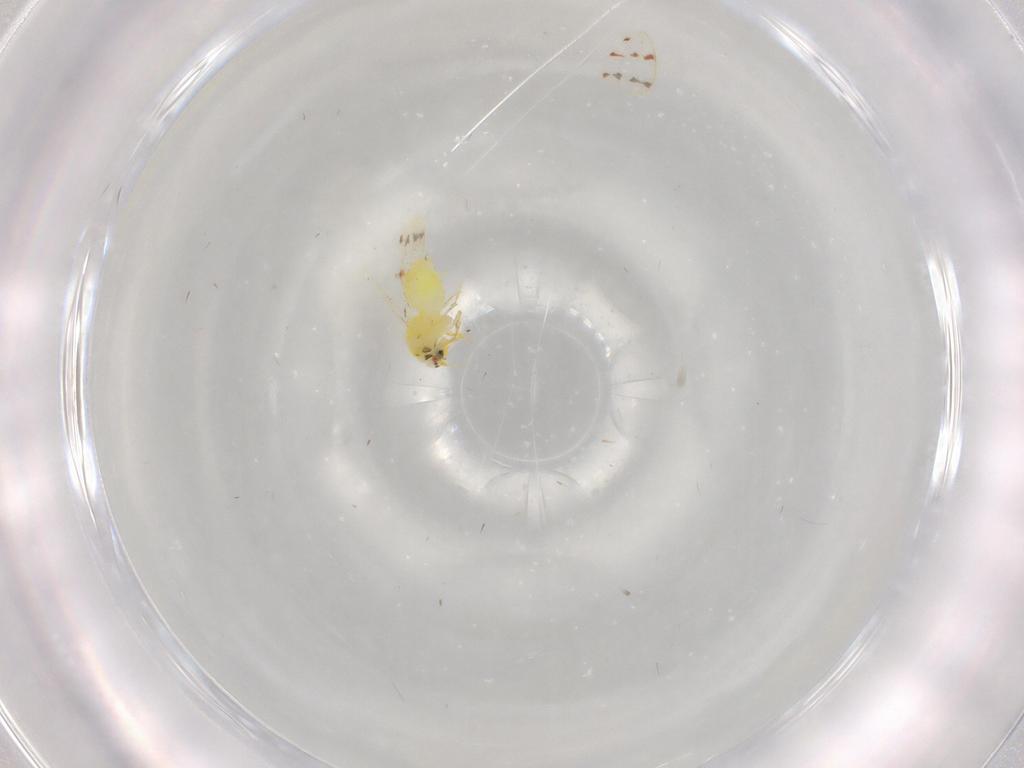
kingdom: Animalia
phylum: Arthropoda
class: Insecta
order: Hemiptera
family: Aleyrodidae
